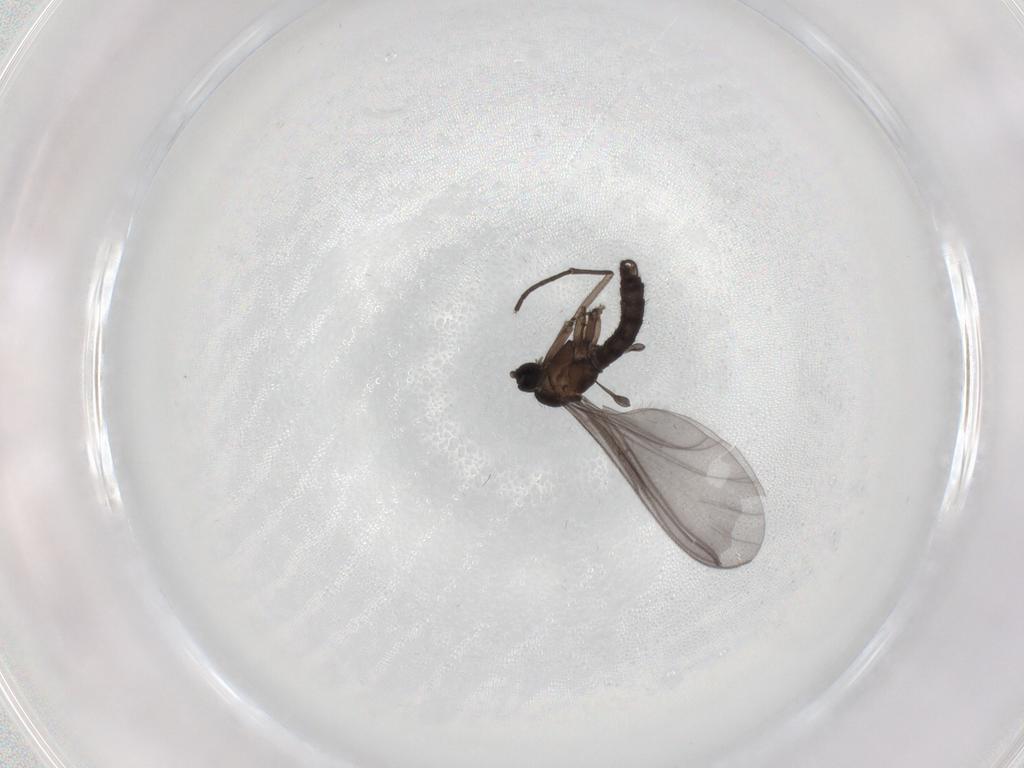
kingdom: Animalia
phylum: Arthropoda
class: Insecta
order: Diptera
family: Sciaridae
